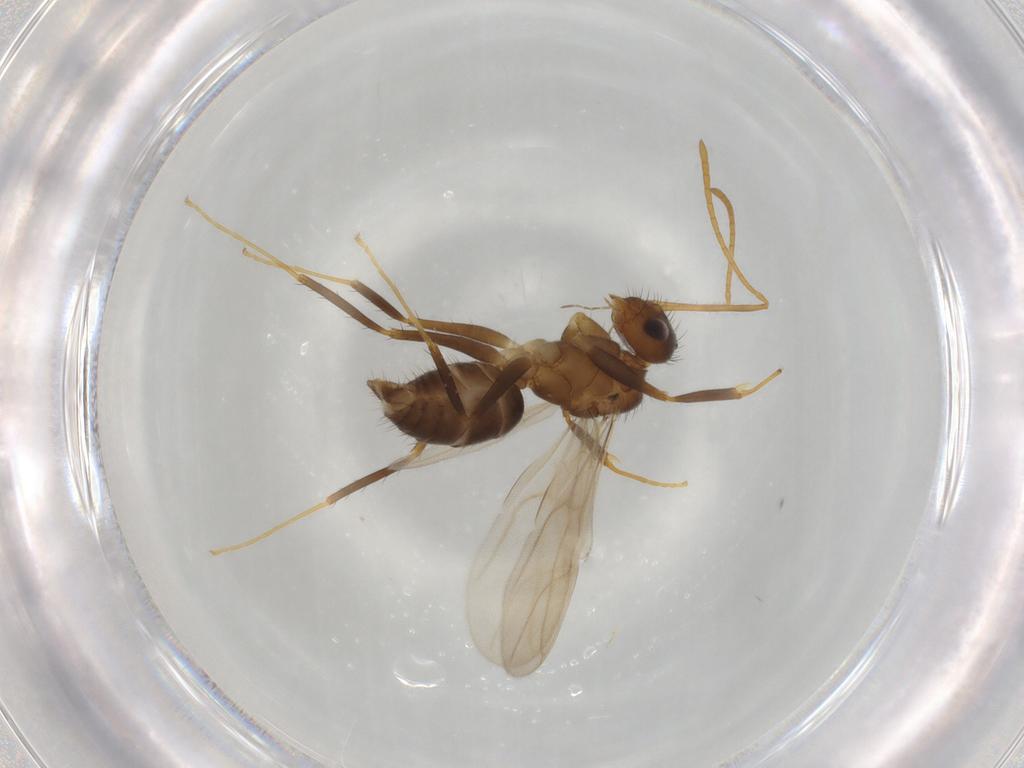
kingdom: Animalia
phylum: Arthropoda
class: Insecta
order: Hymenoptera
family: Formicidae
